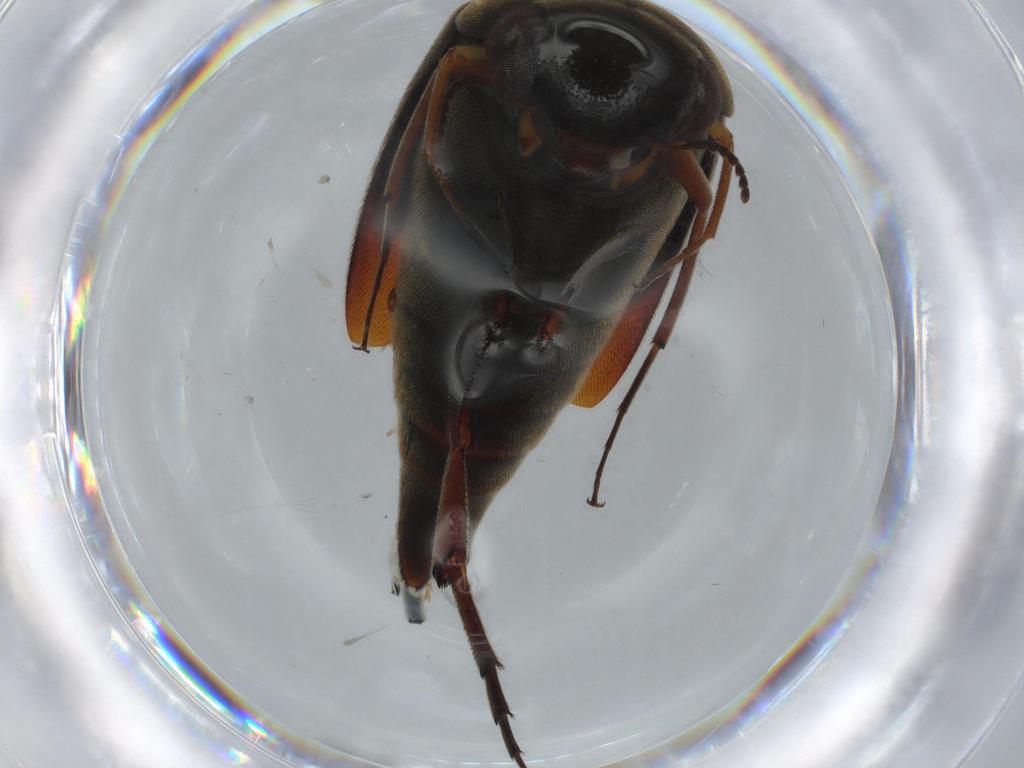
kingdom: Animalia
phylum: Arthropoda
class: Insecta
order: Coleoptera
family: Mordellidae
